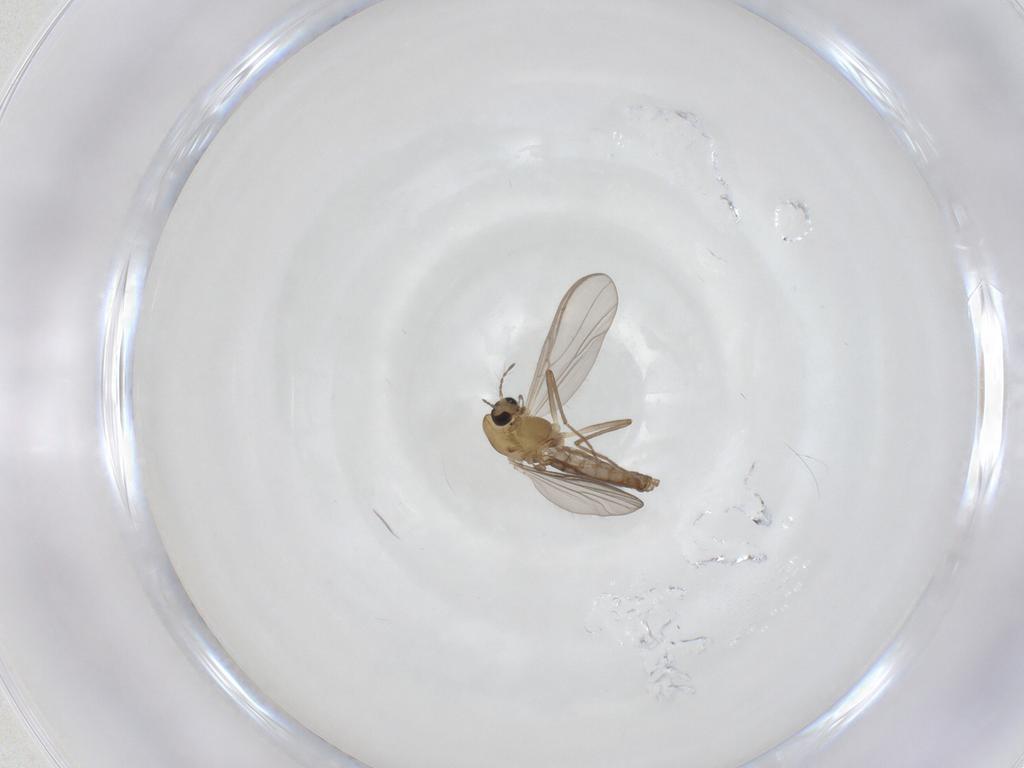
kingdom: Animalia
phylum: Arthropoda
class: Insecta
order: Diptera
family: Chironomidae
